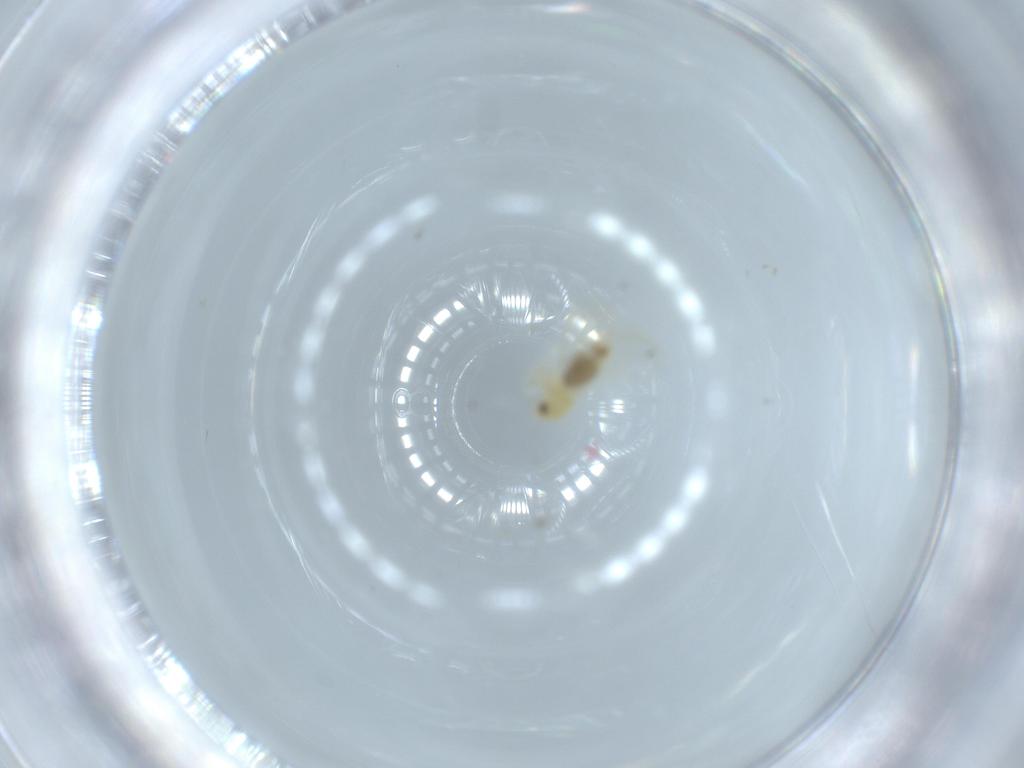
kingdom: Animalia
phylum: Arthropoda
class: Insecta
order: Hemiptera
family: Aleyrodidae
